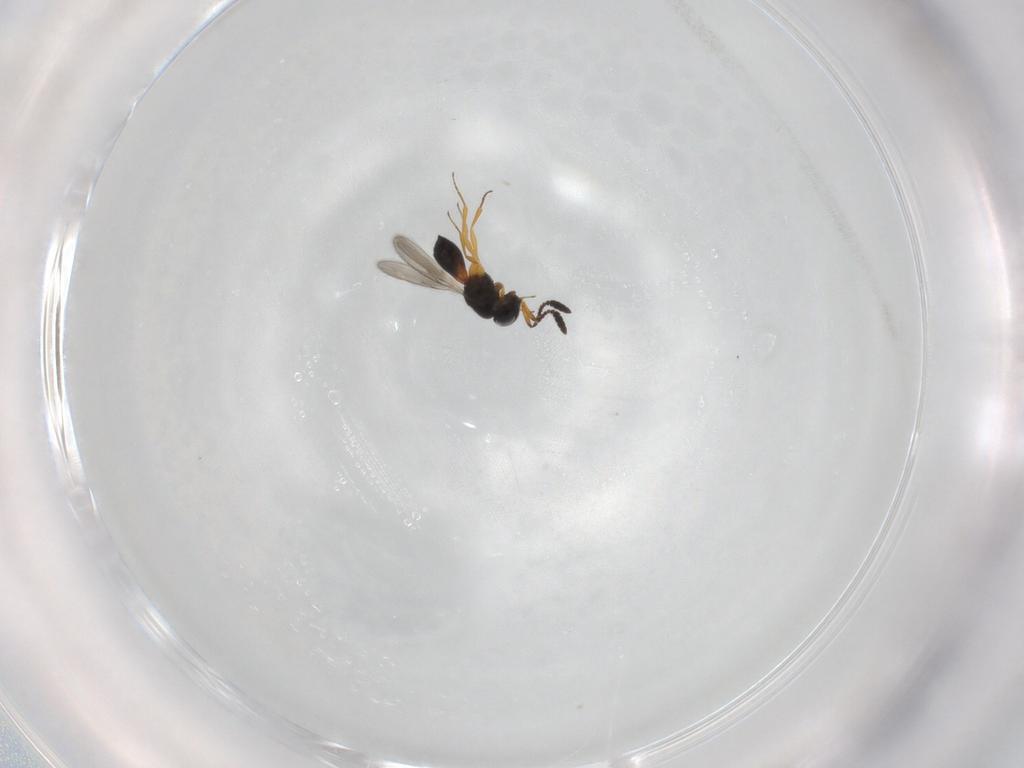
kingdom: Animalia
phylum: Arthropoda
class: Insecta
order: Hymenoptera
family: Scelionidae
